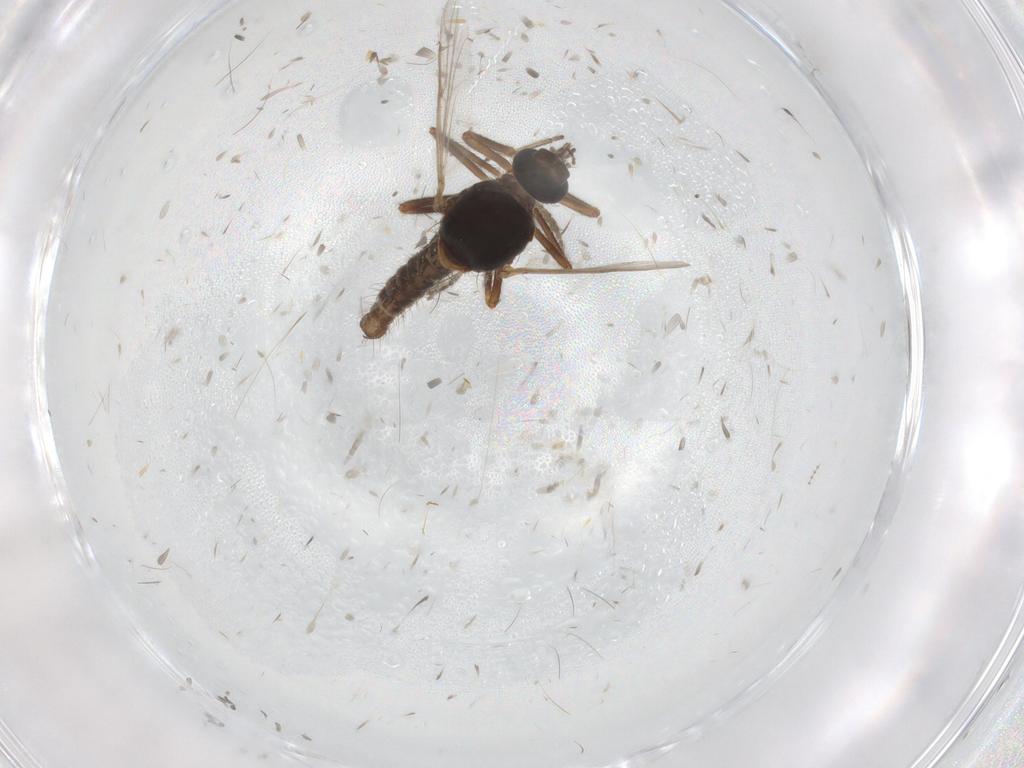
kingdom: Animalia
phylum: Arthropoda
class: Insecta
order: Diptera
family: Ceratopogonidae
